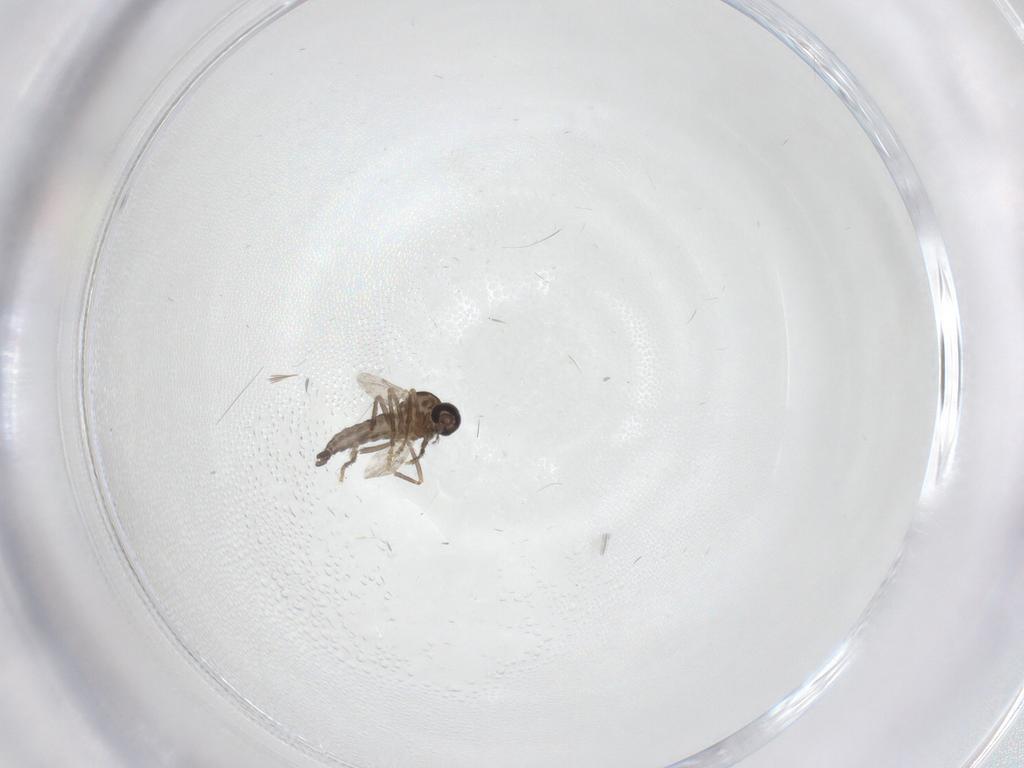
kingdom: Animalia
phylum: Arthropoda
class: Insecta
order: Diptera
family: Ceratopogonidae
